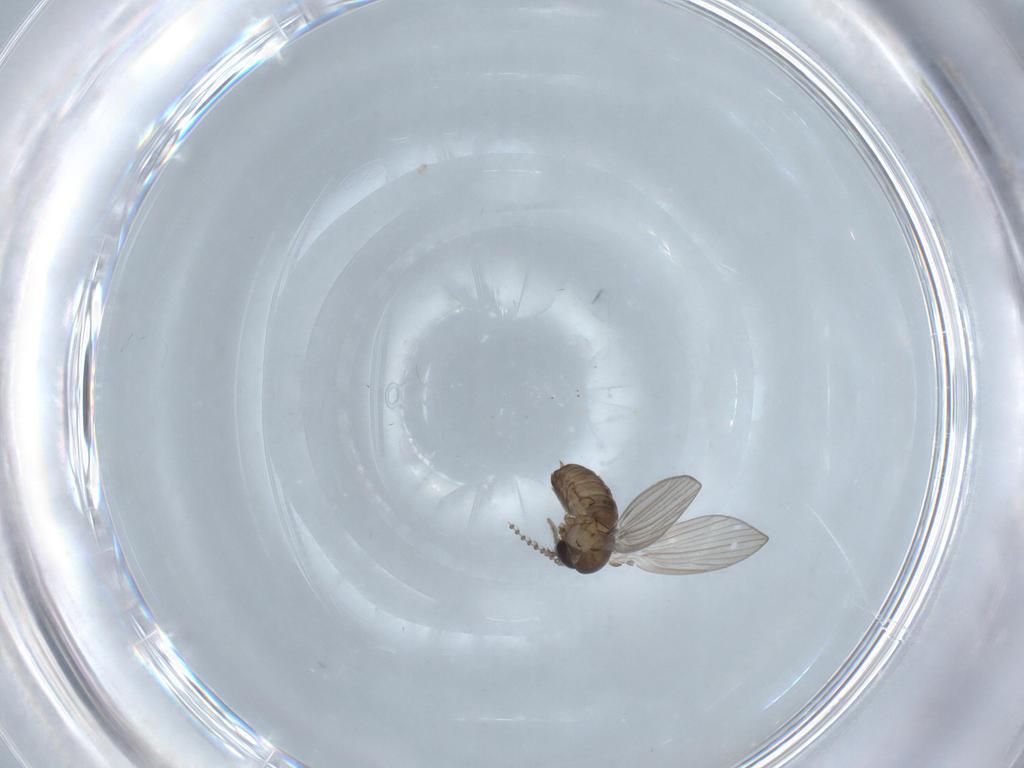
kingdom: Animalia
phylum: Arthropoda
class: Insecta
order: Diptera
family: Psychodidae
